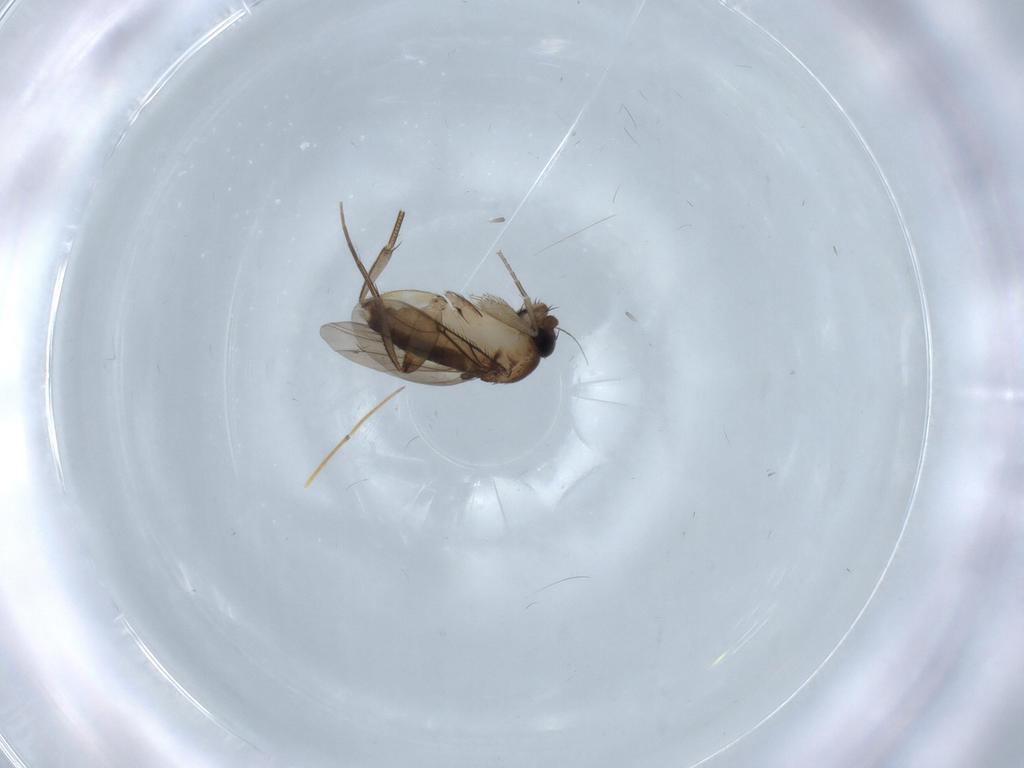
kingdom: Animalia
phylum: Arthropoda
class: Insecta
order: Diptera
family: Phoridae
